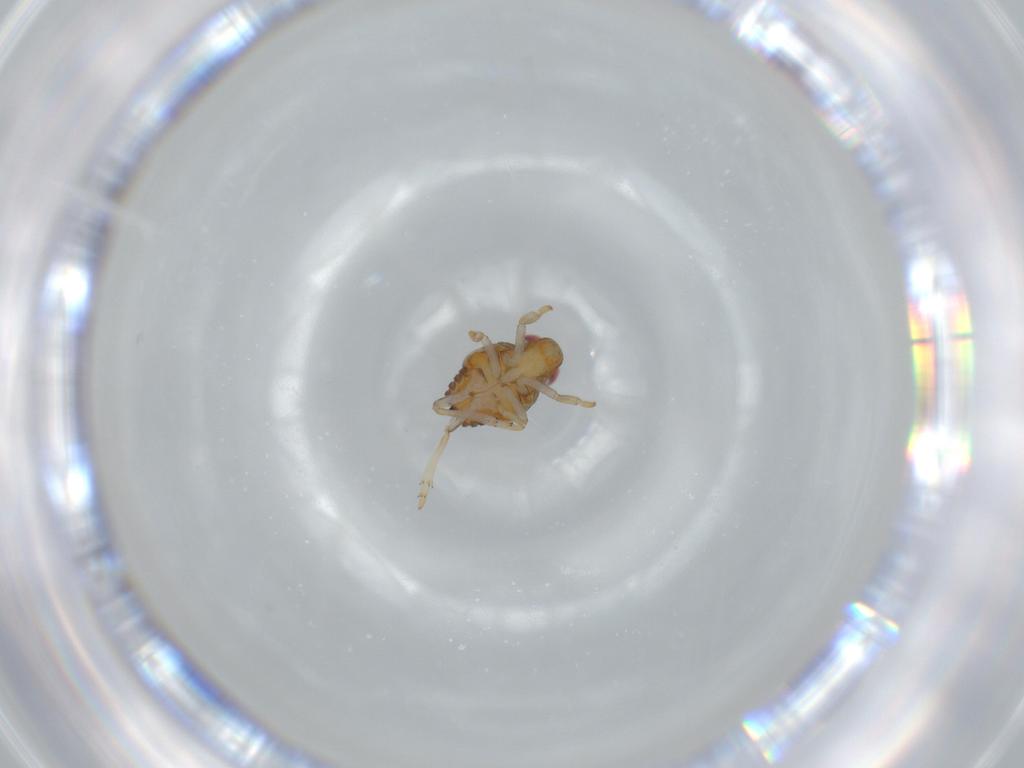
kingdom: Animalia
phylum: Arthropoda
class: Insecta
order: Hemiptera
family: Issidae
